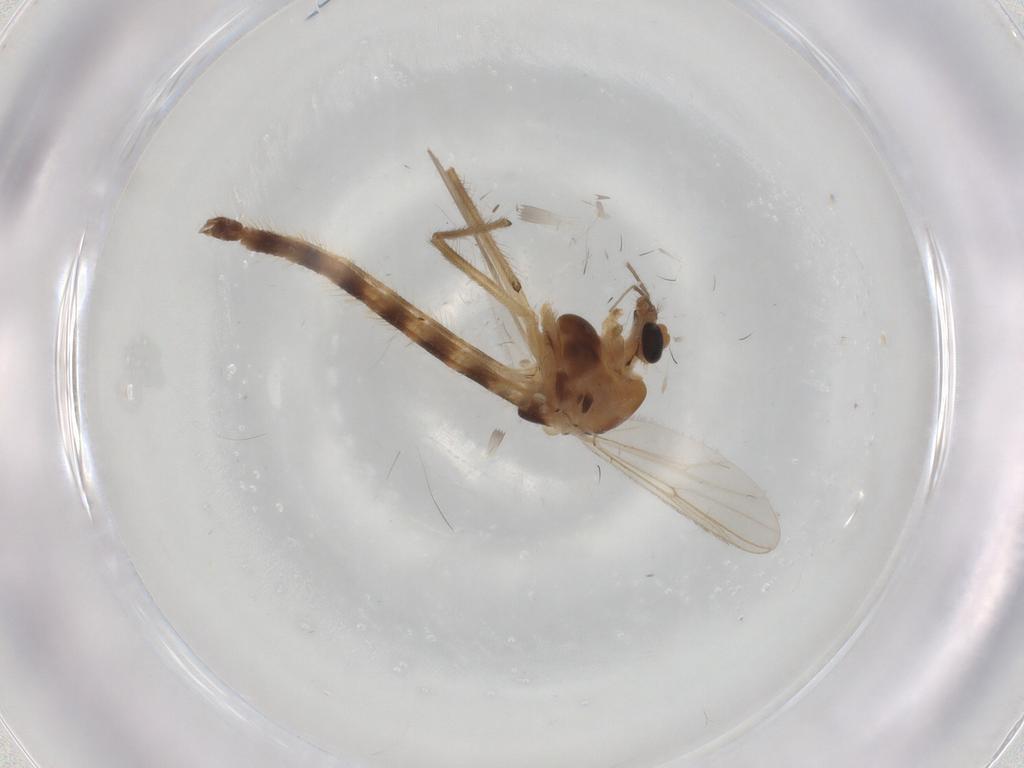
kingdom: Animalia
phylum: Arthropoda
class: Insecta
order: Diptera
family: Chironomidae
